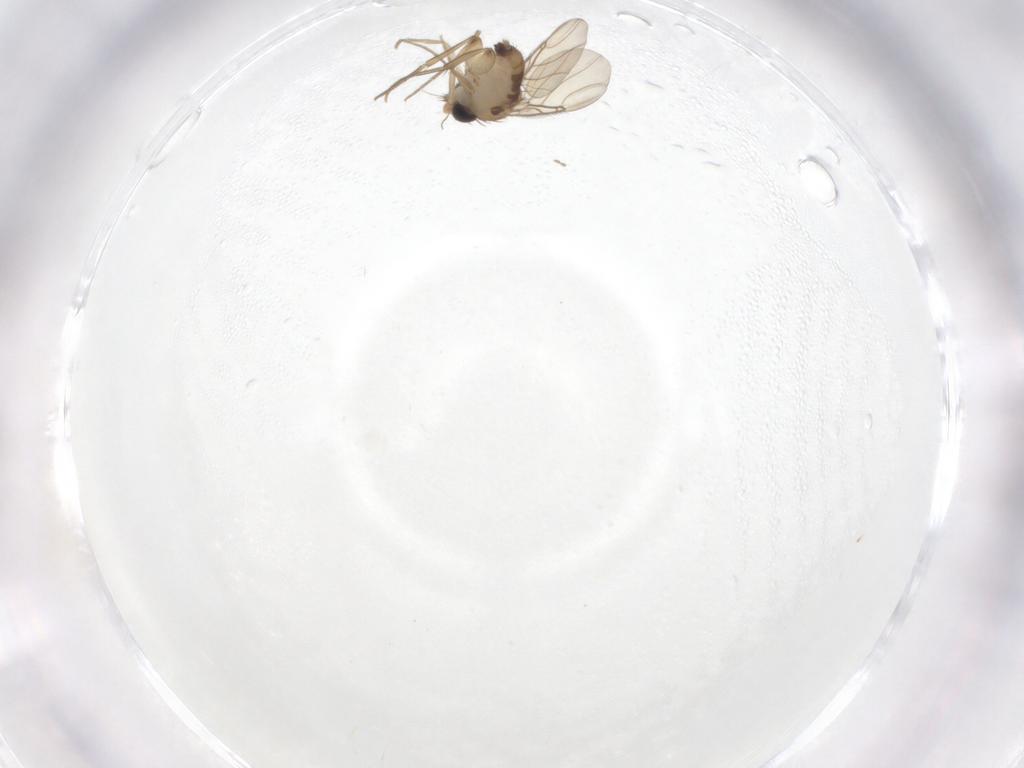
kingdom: Animalia
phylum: Arthropoda
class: Insecta
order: Diptera
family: Phoridae
